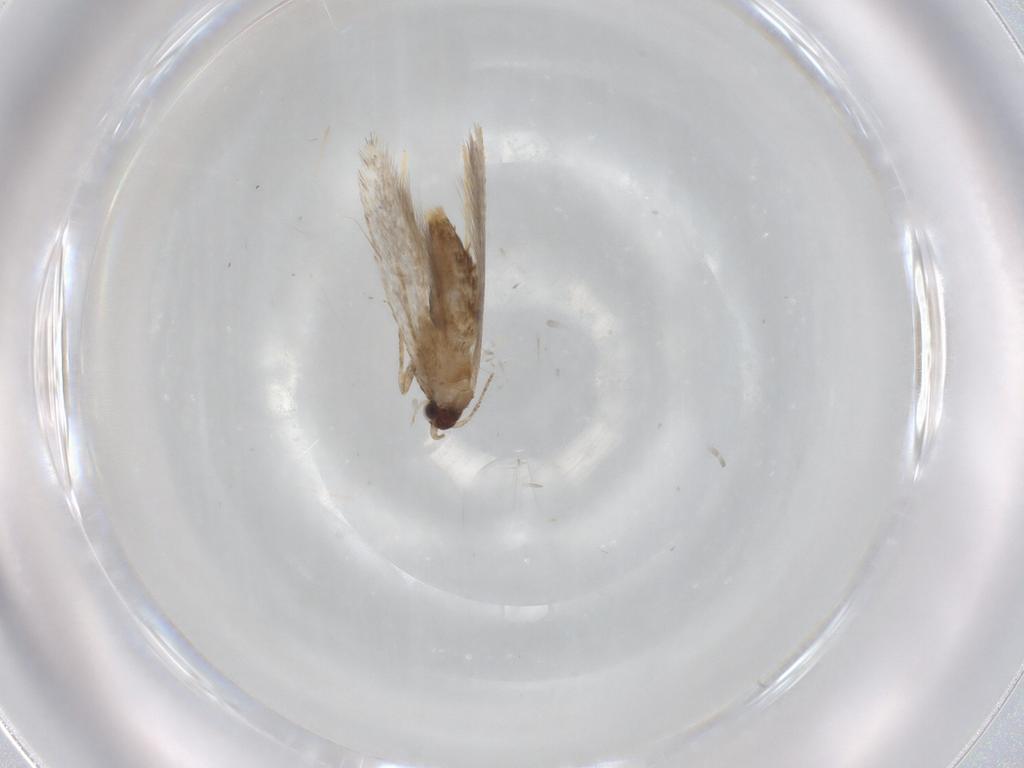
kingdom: Animalia
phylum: Arthropoda
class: Insecta
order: Lepidoptera
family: Tineidae
